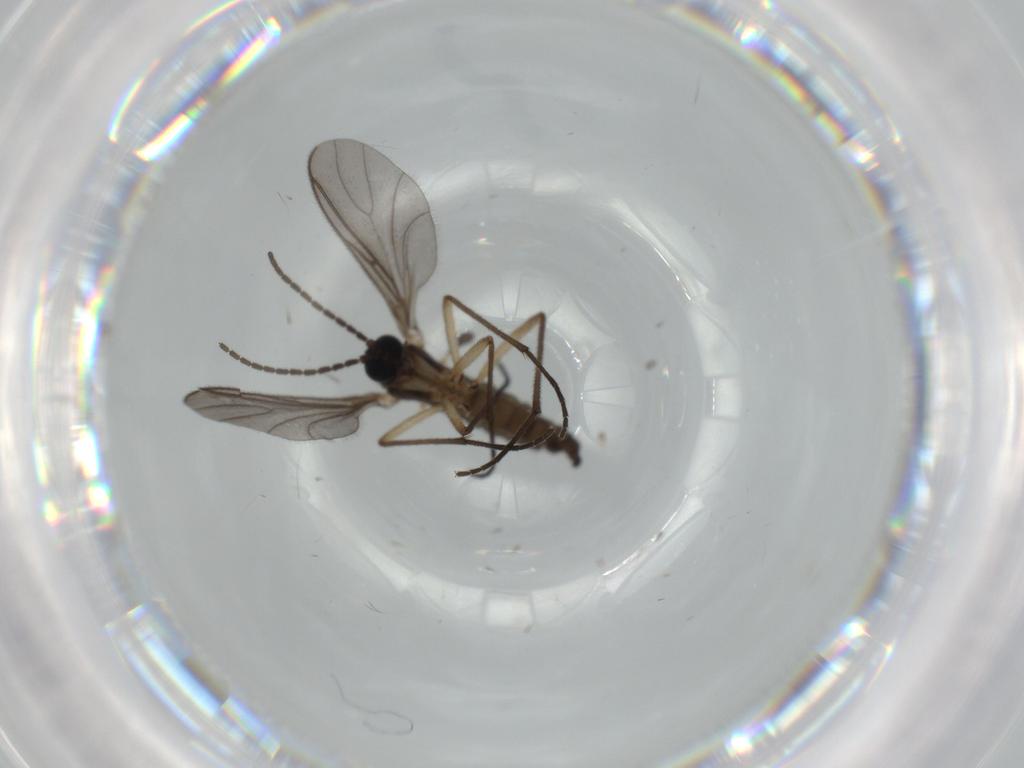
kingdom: Animalia
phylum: Arthropoda
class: Insecta
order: Diptera
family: Sciaridae
